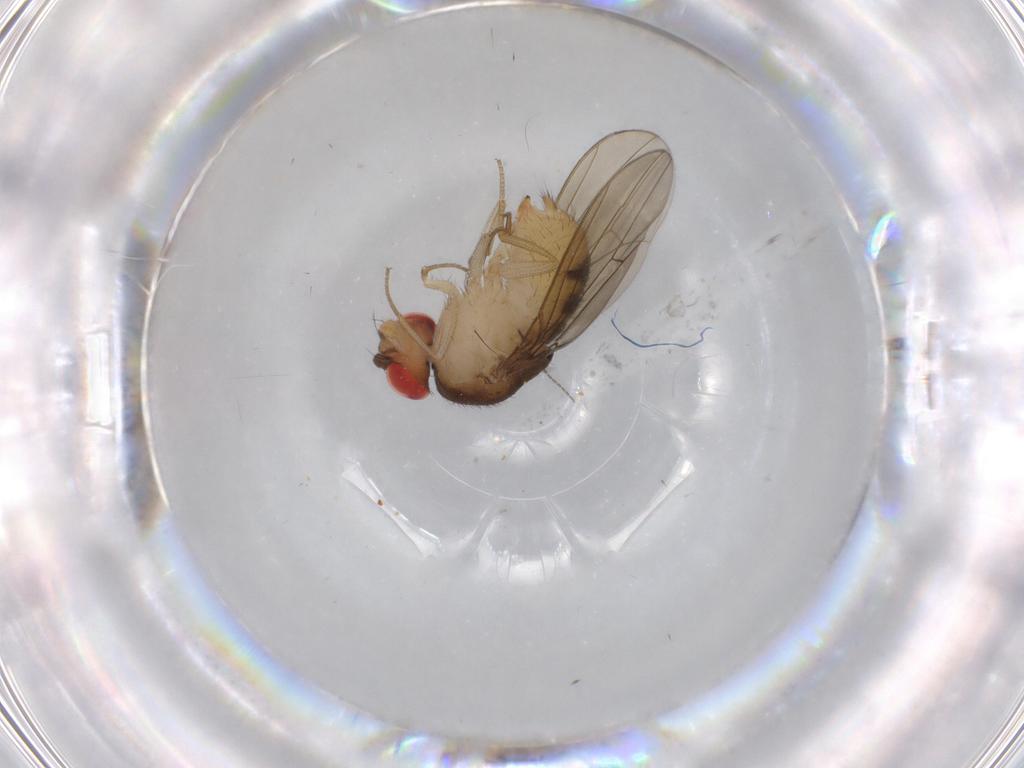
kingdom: Animalia
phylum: Arthropoda
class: Insecta
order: Diptera
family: Drosophilidae
